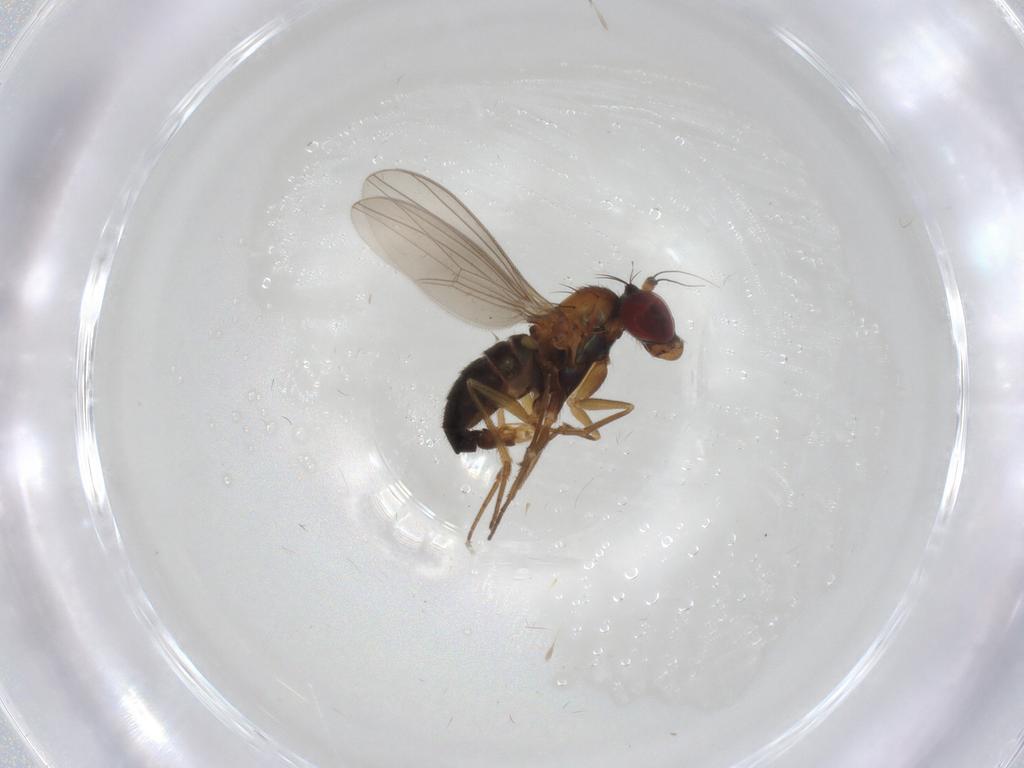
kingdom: Animalia
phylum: Arthropoda
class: Insecta
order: Diptera
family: Dolichopodidae
